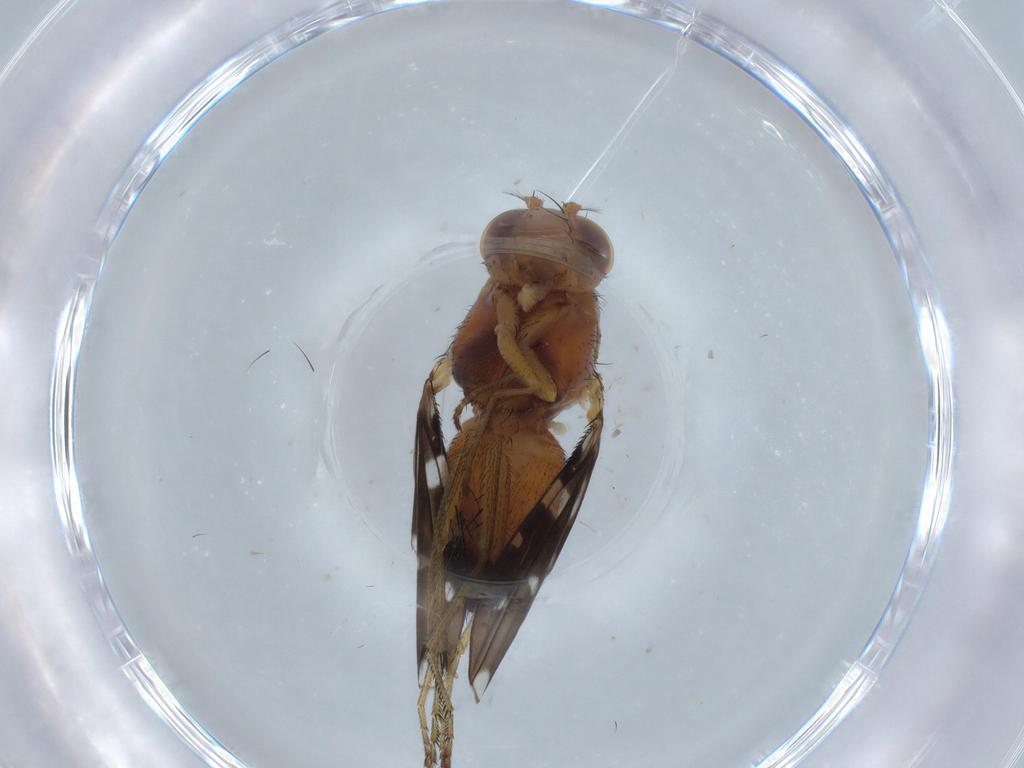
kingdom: Animalia
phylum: Arthropoda
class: Insecta
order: Diptera
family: Ephydridae
